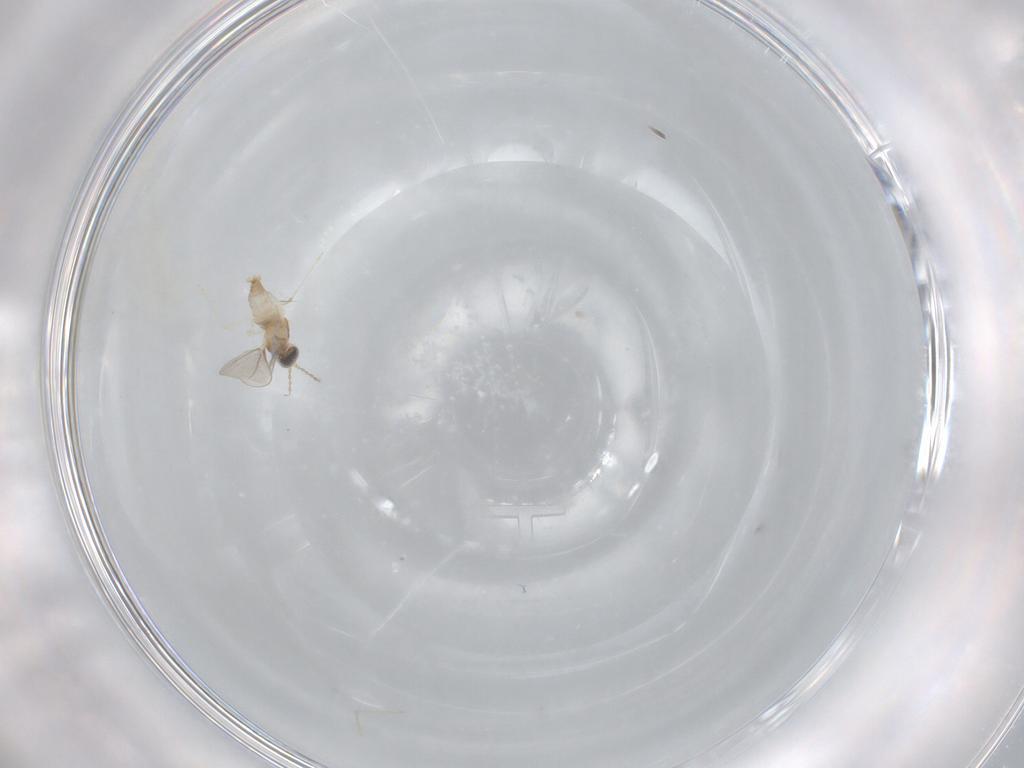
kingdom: Animalia
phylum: Arthropoda
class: Insecta
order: Diptera
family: Cecidomyiidae
